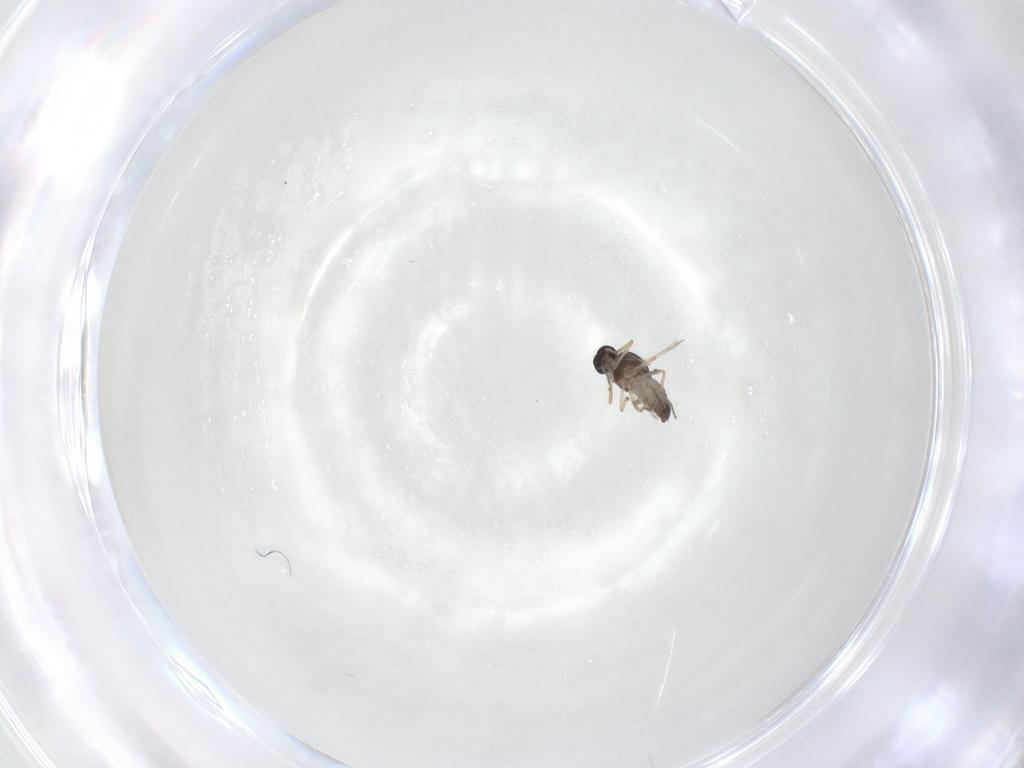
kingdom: Animalia
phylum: Arthropoda
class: Insecta
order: Diptera
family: Ceratopogonidae
